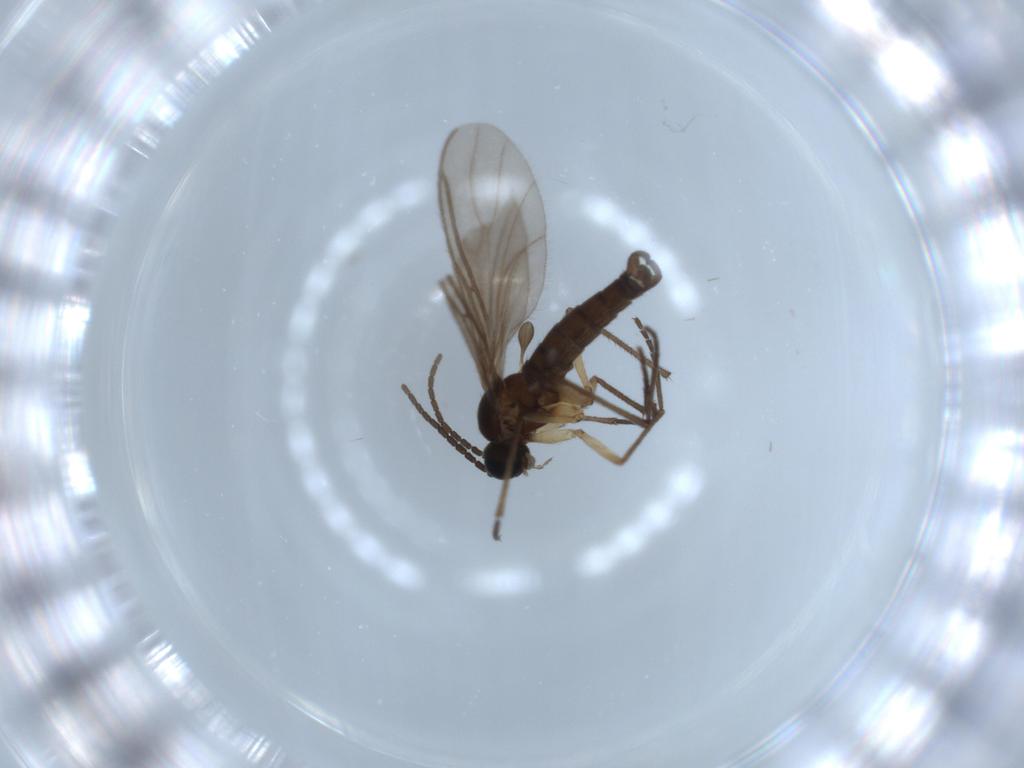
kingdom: Animalia
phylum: Arthropoda
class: Insecta
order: Diptera
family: Sciaridae
